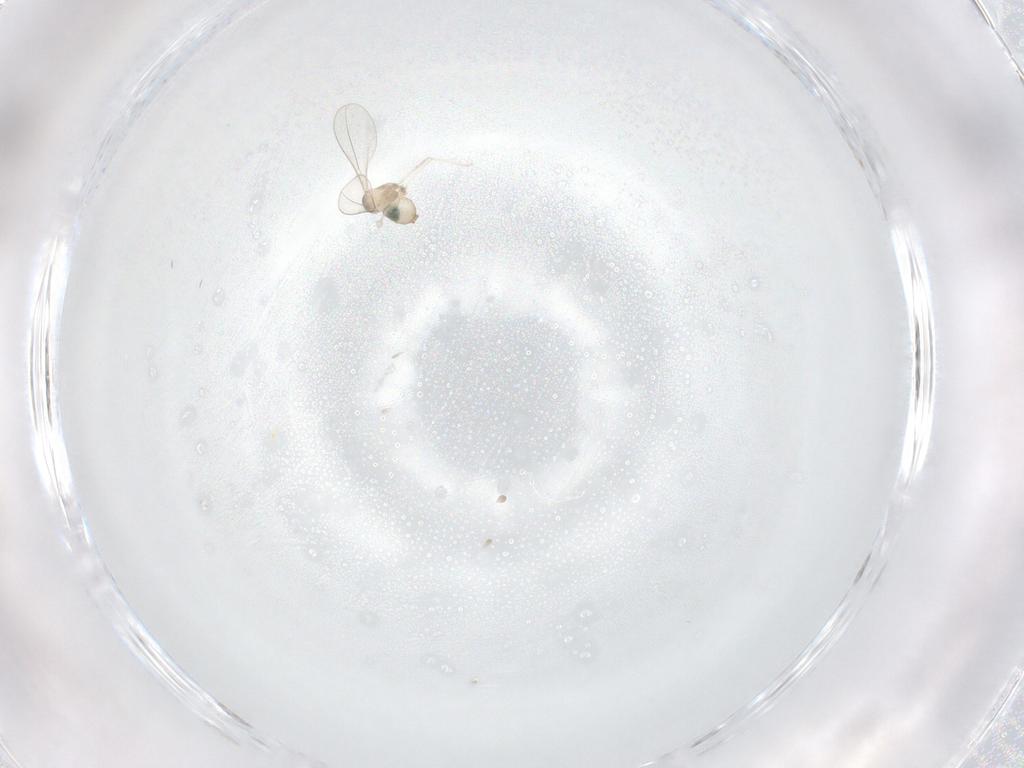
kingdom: Animalia
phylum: Arthropoda
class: Insecta
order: Diptera
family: Cecidomyiidae
